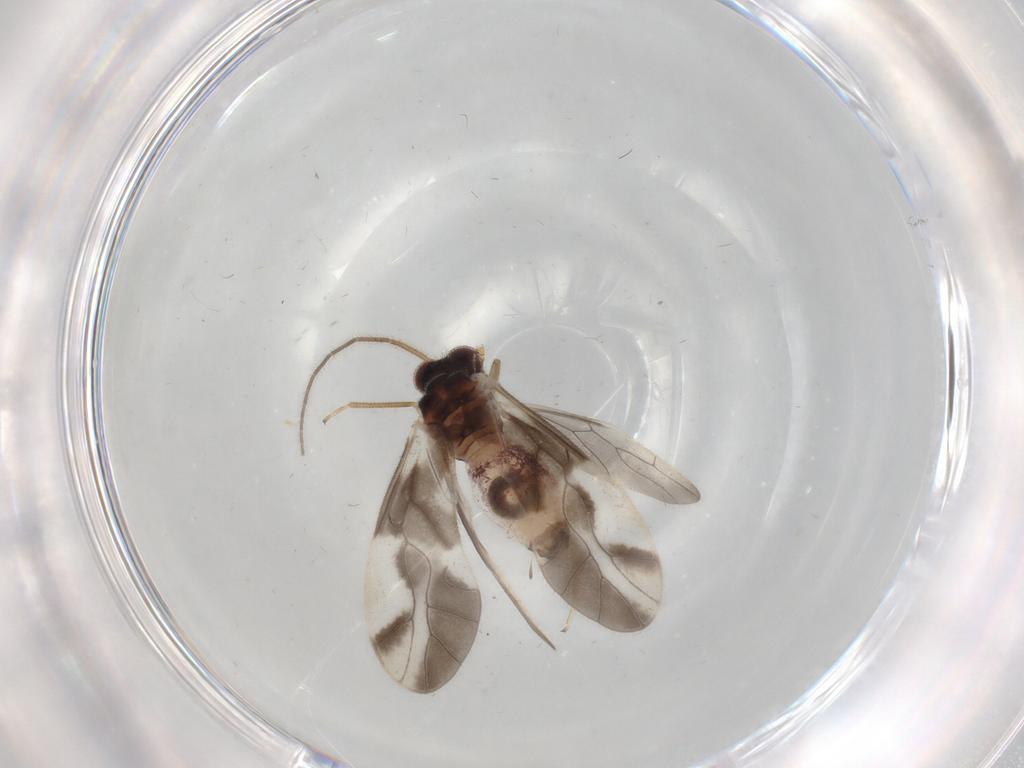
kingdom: Animalia
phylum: Arthropoda
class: Insecta
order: Psocodea
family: Caeciliusidae
